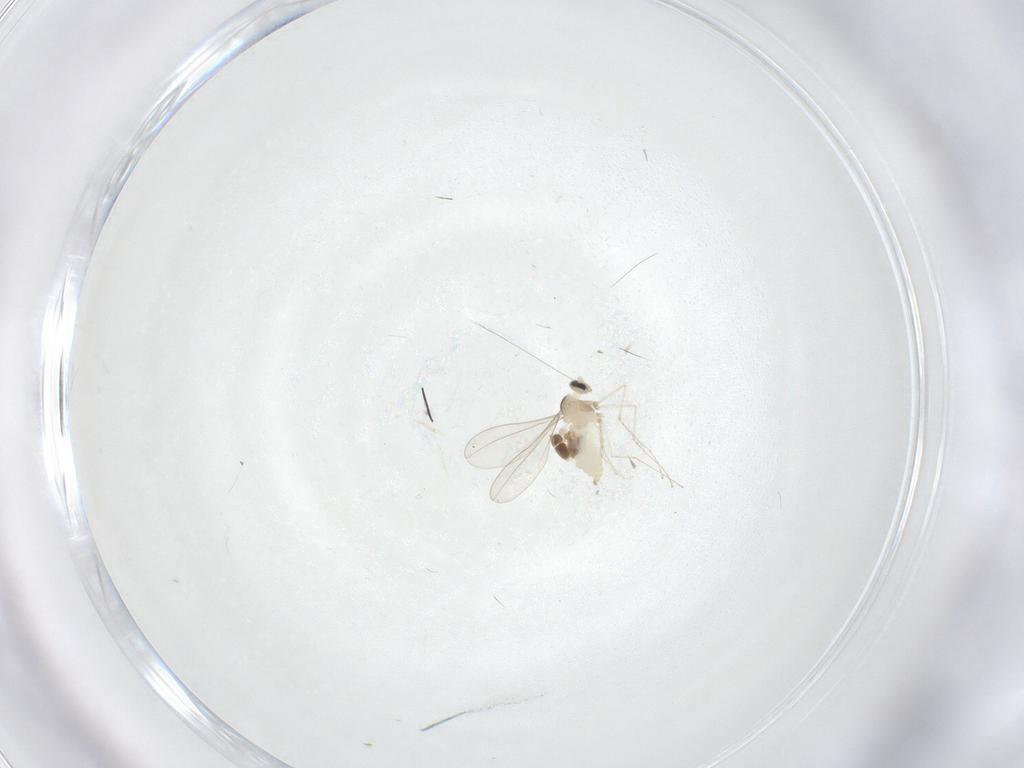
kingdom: Animalia
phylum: Arthropoda
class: Insecta
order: Diptera
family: Cecidomyiidae
